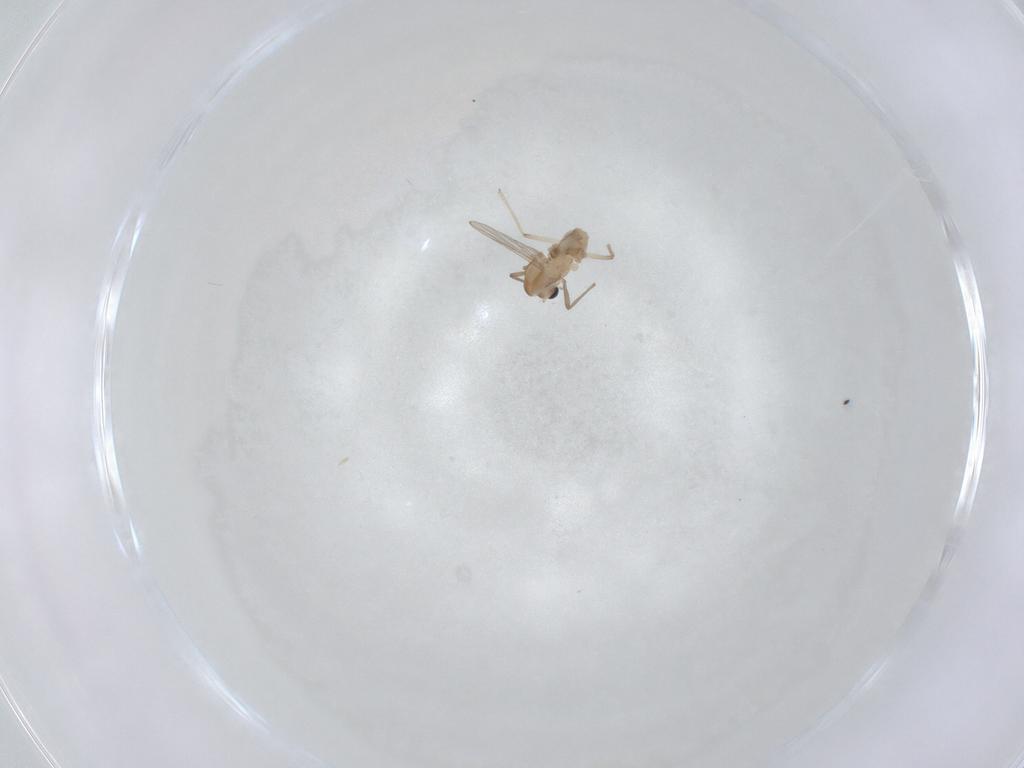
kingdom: Animalia
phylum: Arthropoda
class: Insecta
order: Diptera
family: Chironomidae
